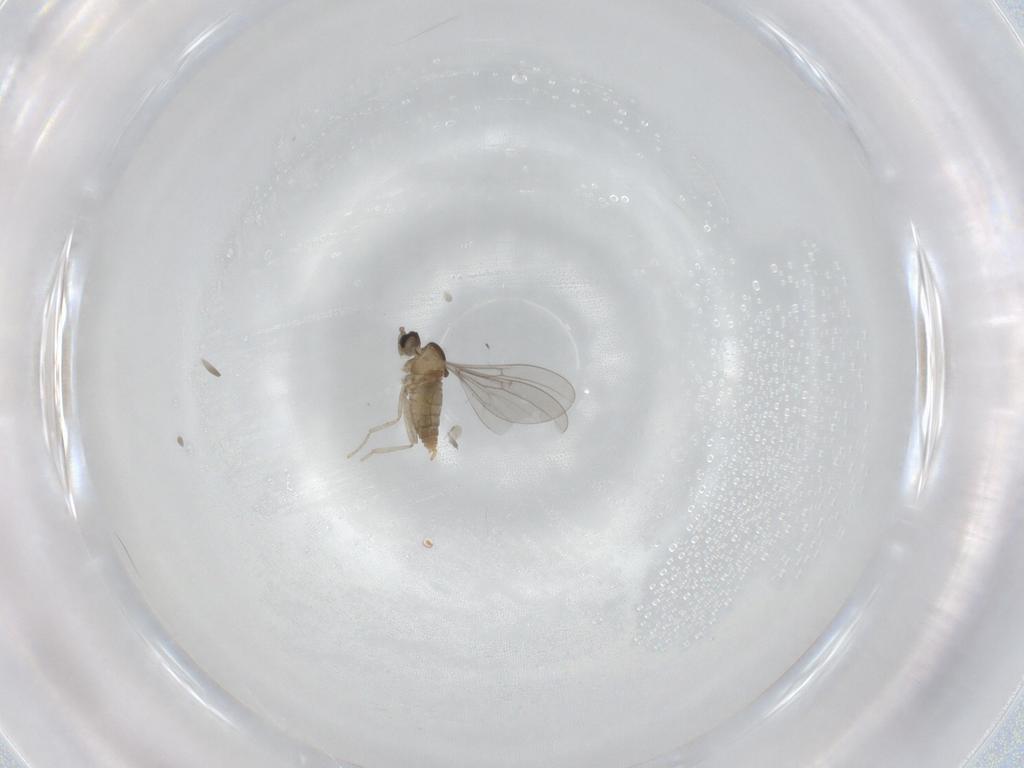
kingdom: Animalia
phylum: Arthropoda
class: Insecta
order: Diptera
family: Cecidomyiidae
